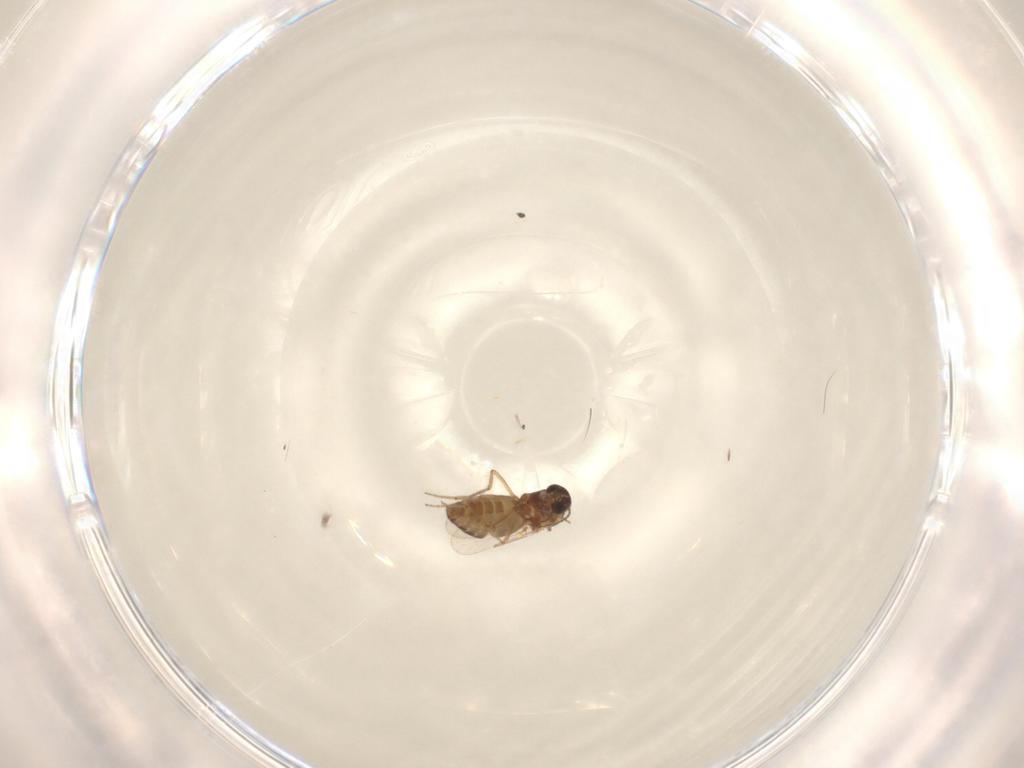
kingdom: Animalia
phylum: Arthropoda
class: Insecta
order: Diptera
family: Ceratopogonidae
